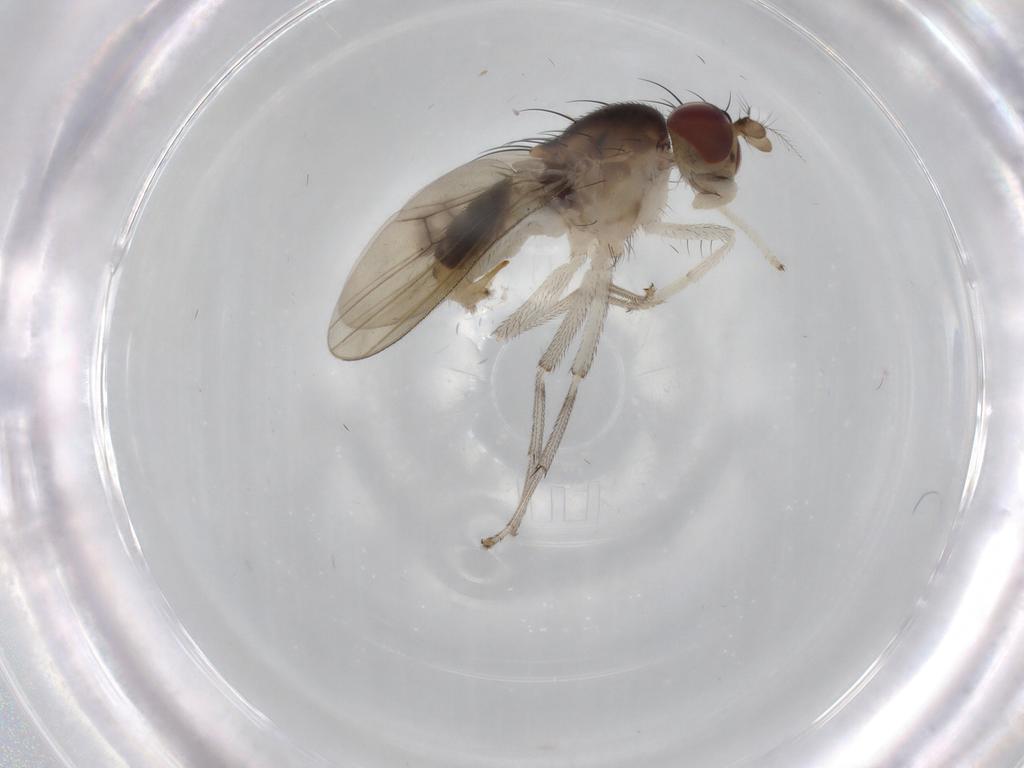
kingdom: Animalia
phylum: Arthropoda
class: Insecta
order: Diptera
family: Lauxaniidae
